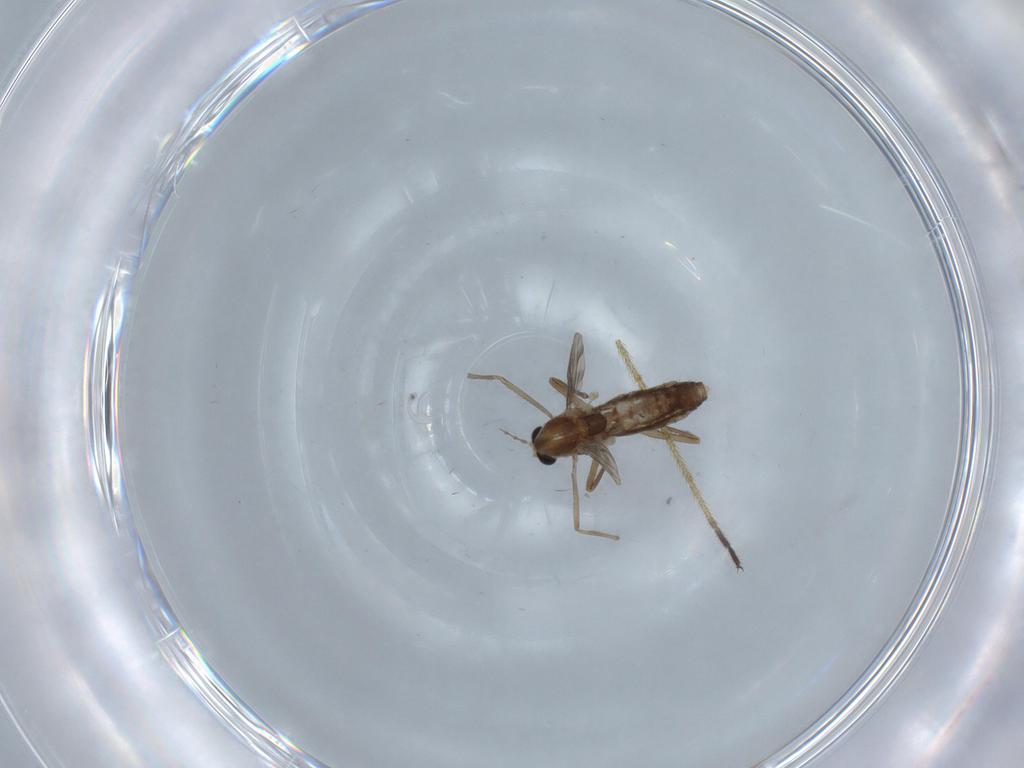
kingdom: Animalia
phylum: Arthropoda
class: Insecta
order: Diptera
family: Chironomidae
